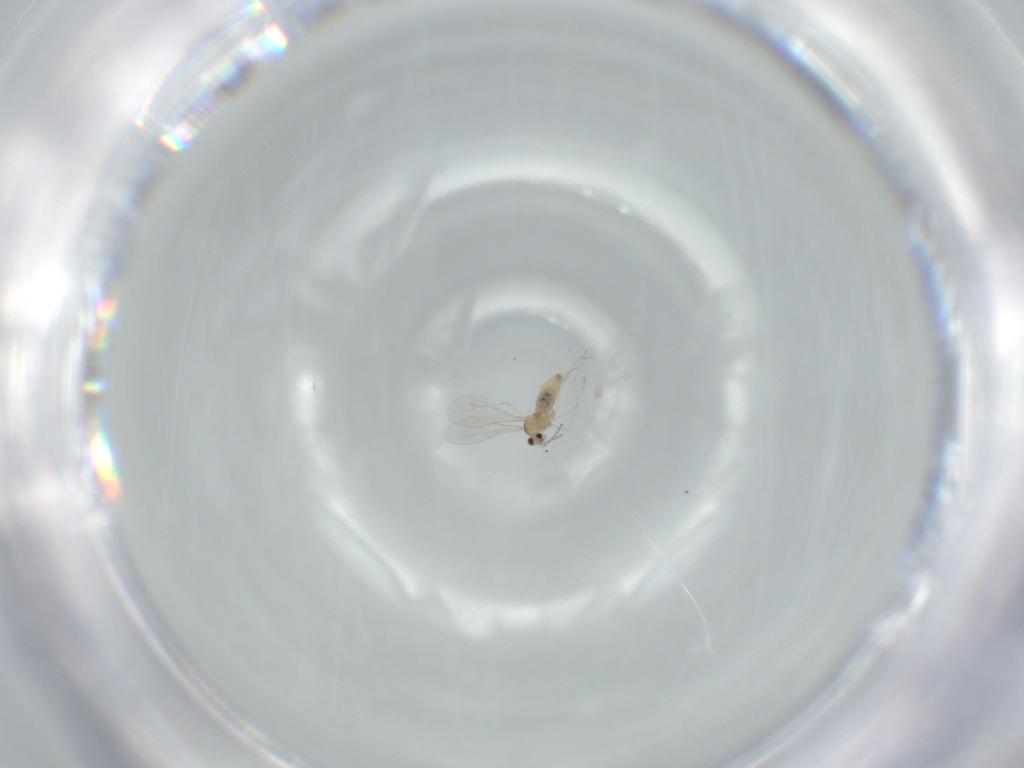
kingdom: Animalia
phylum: Arthropoda
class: Insecta
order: Diptera
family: Cecidomyiidae
